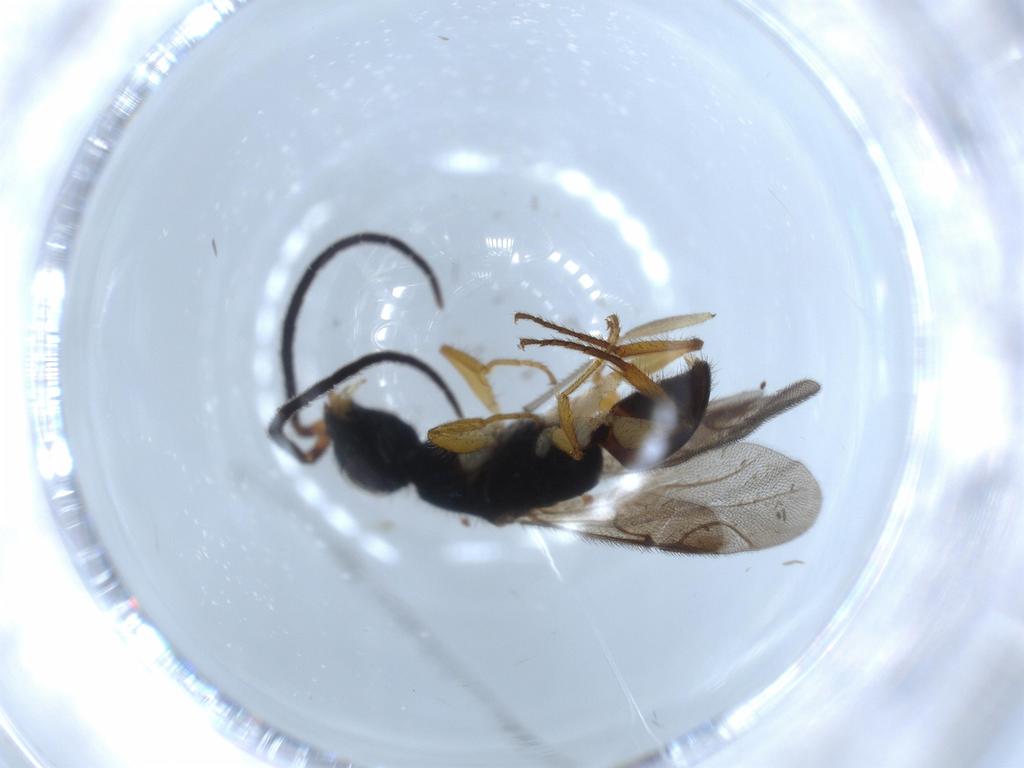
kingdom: Animalia
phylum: Arthropoda
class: Insecta
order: Hymenoptera
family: Chrysididae
